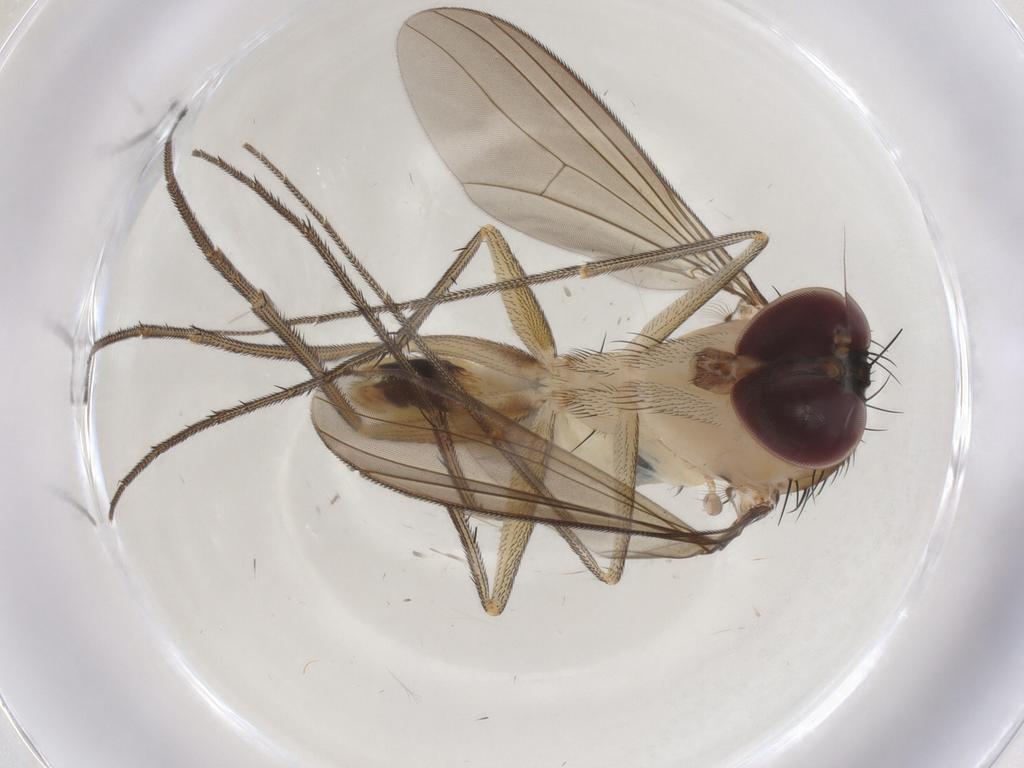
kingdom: Animalia
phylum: Arthropoda
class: Insecta
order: Diptera
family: Dolichopodidae
